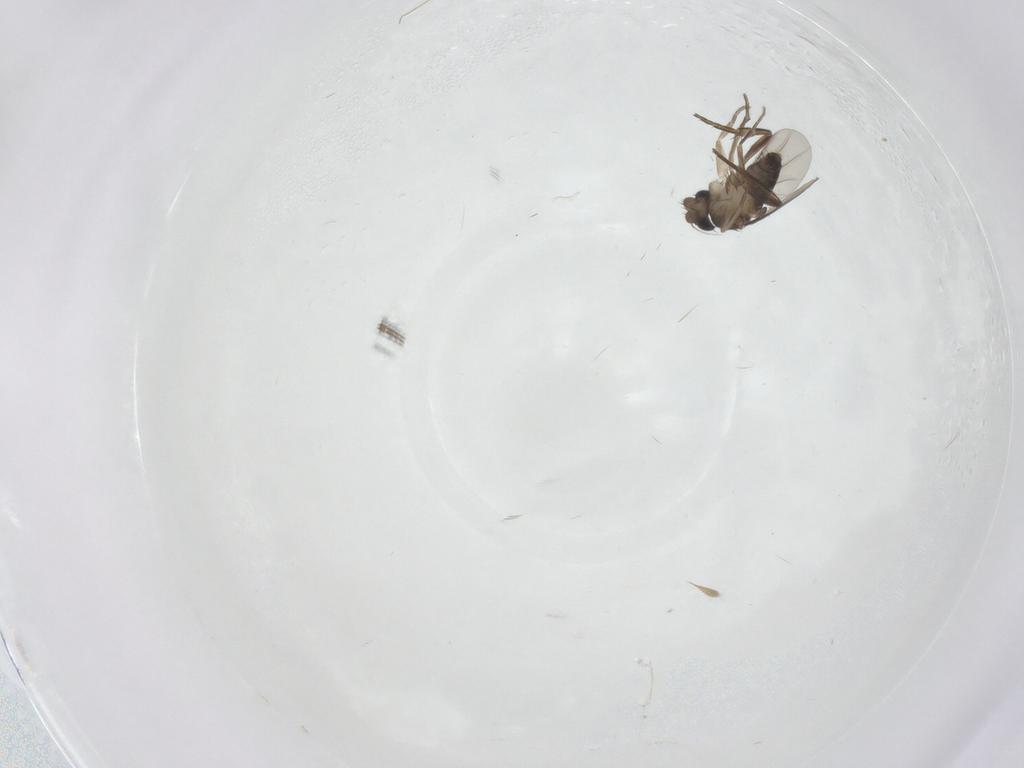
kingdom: Animalia
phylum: Arthropoda
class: Insecta
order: Diptera
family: Phoridae
